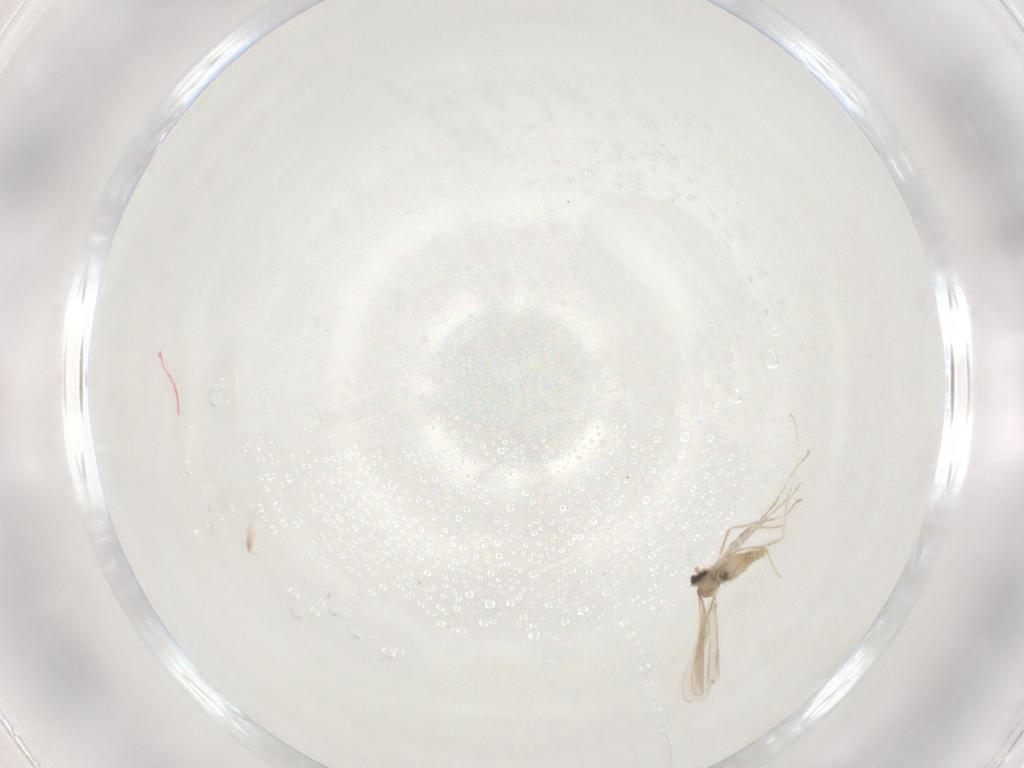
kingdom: Animalia
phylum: Arthropoda
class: Insecta
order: Diptera
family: Cecidomyiidae
